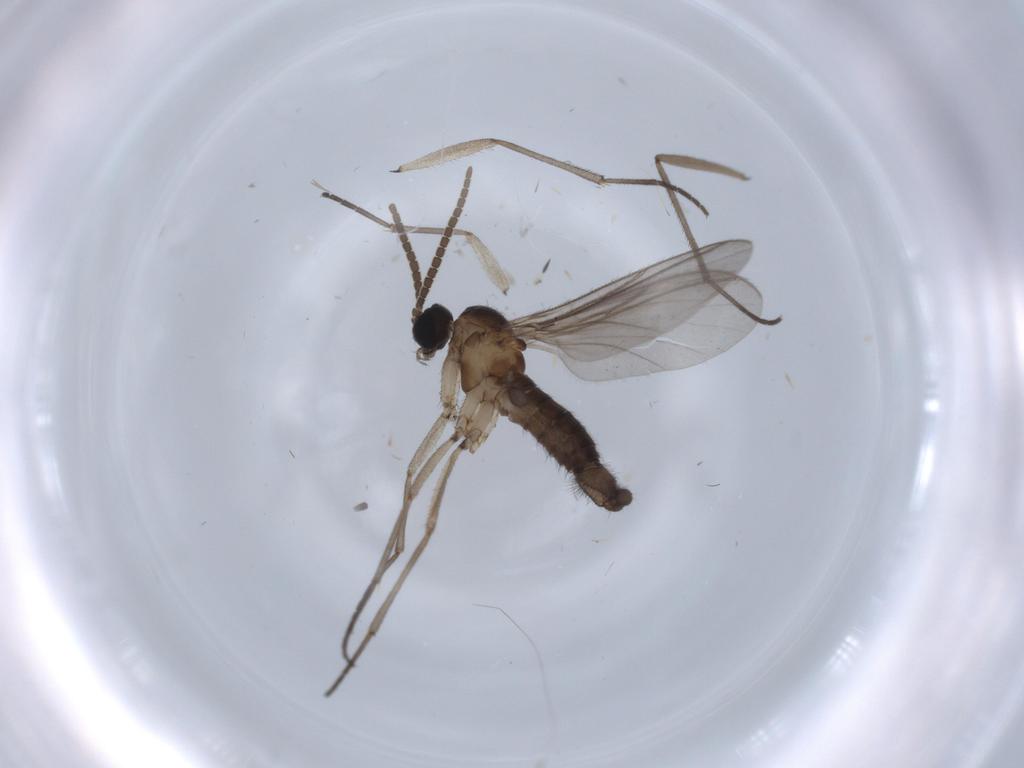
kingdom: Animalia
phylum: Arthropoda
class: Insecta
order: Diptera
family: Sciaridae
